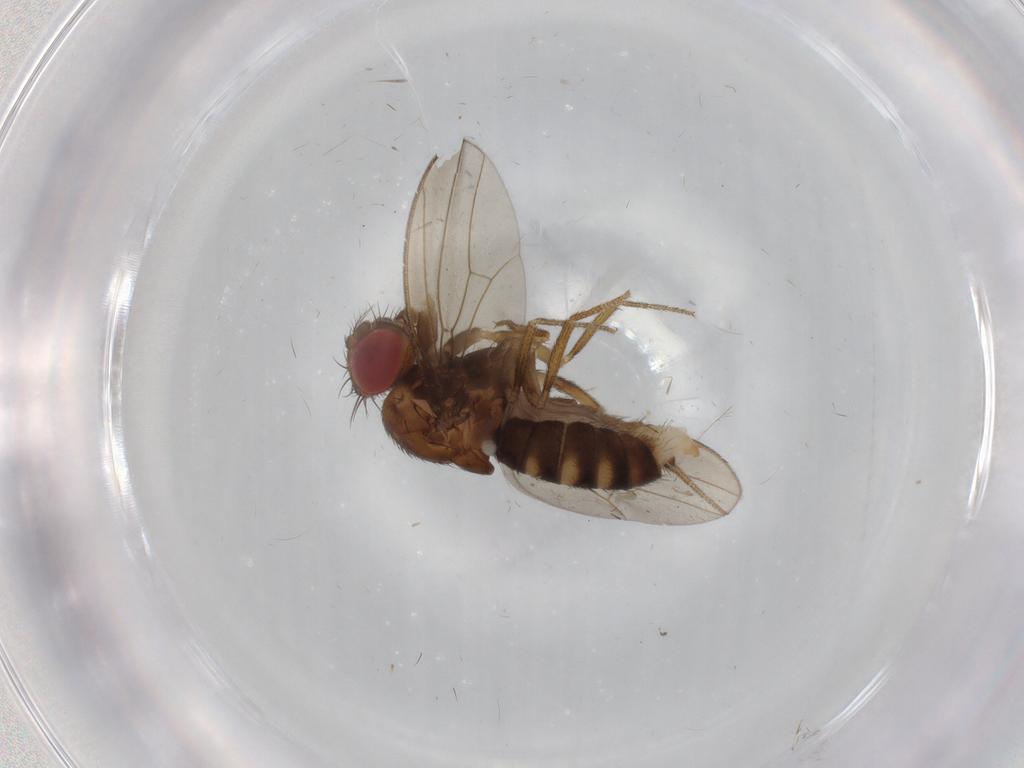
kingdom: Animalia
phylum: Arthropoda
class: Insecta
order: Diptera
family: Drosophilidae
